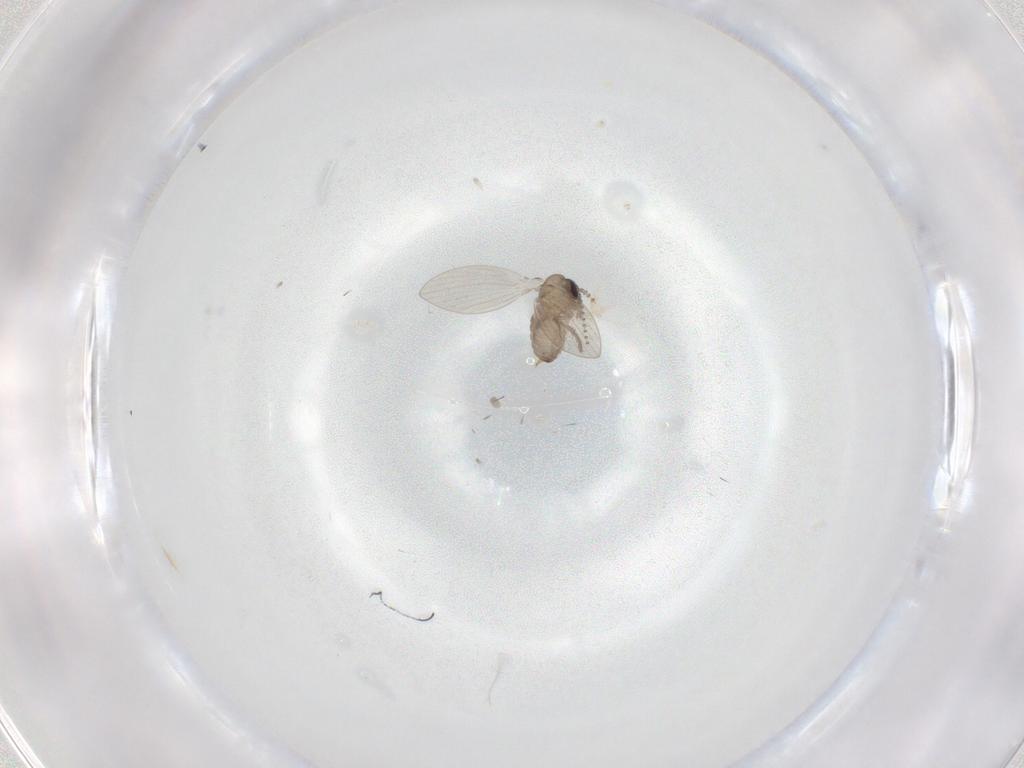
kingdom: Animalia
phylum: Arthropoda
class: Insecta
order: Diptera
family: Psychodidae
